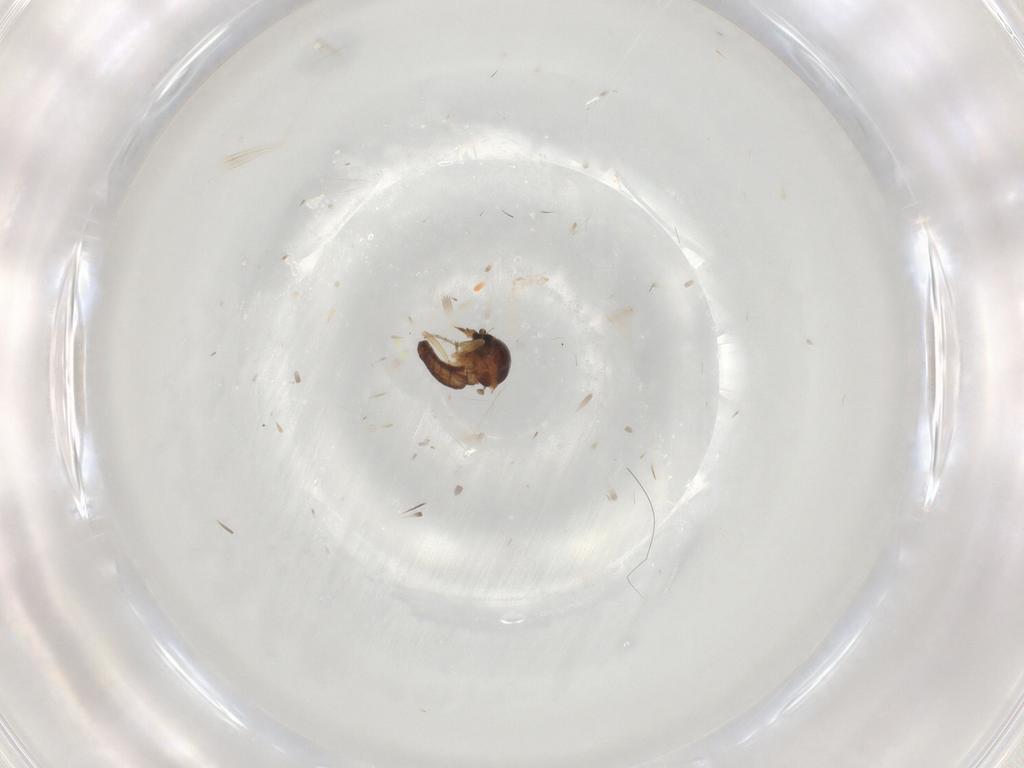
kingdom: Animalia
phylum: Arthropoda
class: Insecta
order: Diptera
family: Ceratopogonidae
